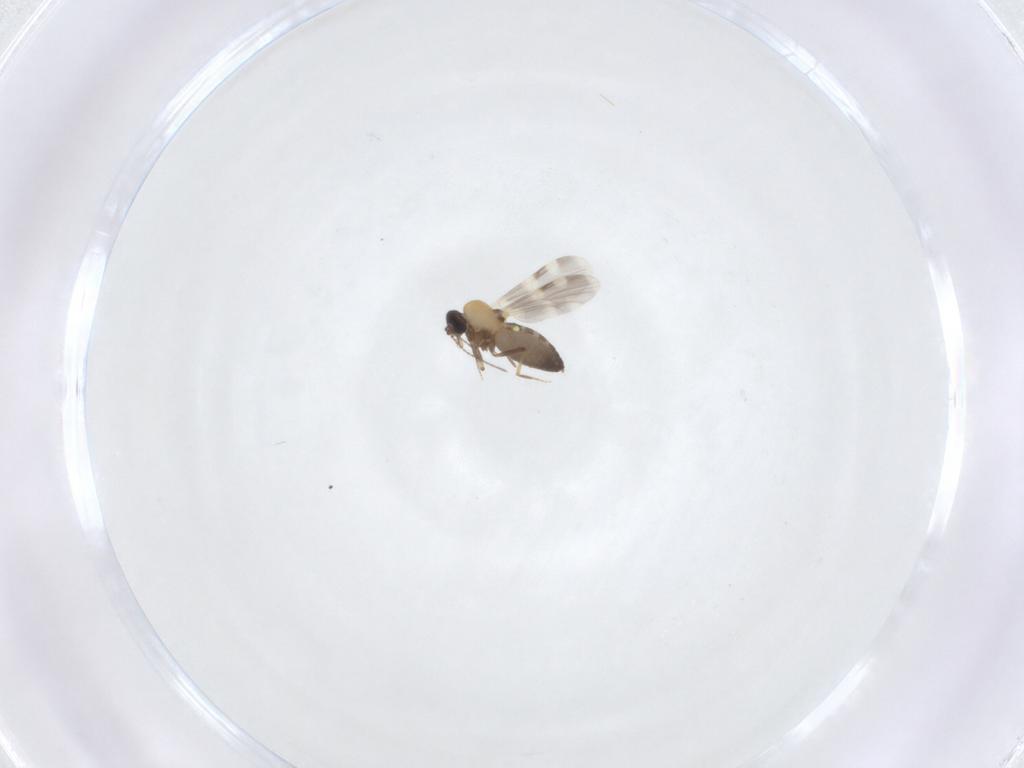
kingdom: Animalia
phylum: Arthropoda
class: Insecta
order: Diptera
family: Ceratopogonidae
